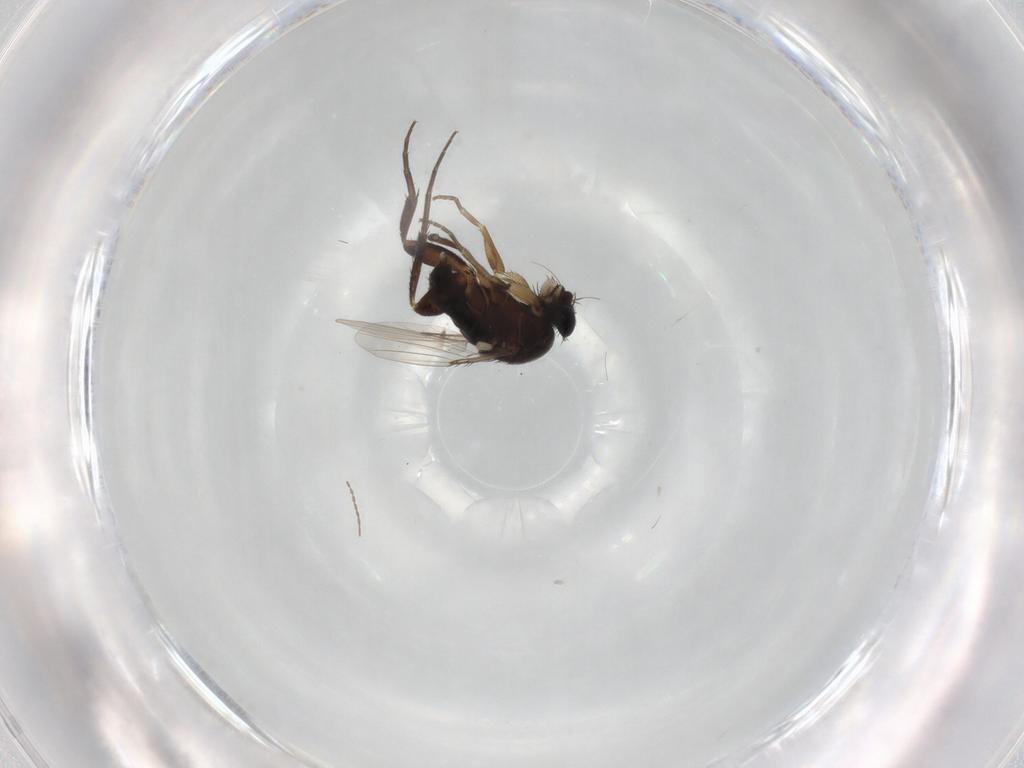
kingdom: Animalia
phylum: Arthropoda
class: Insecta
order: Diptera
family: Phoridae
